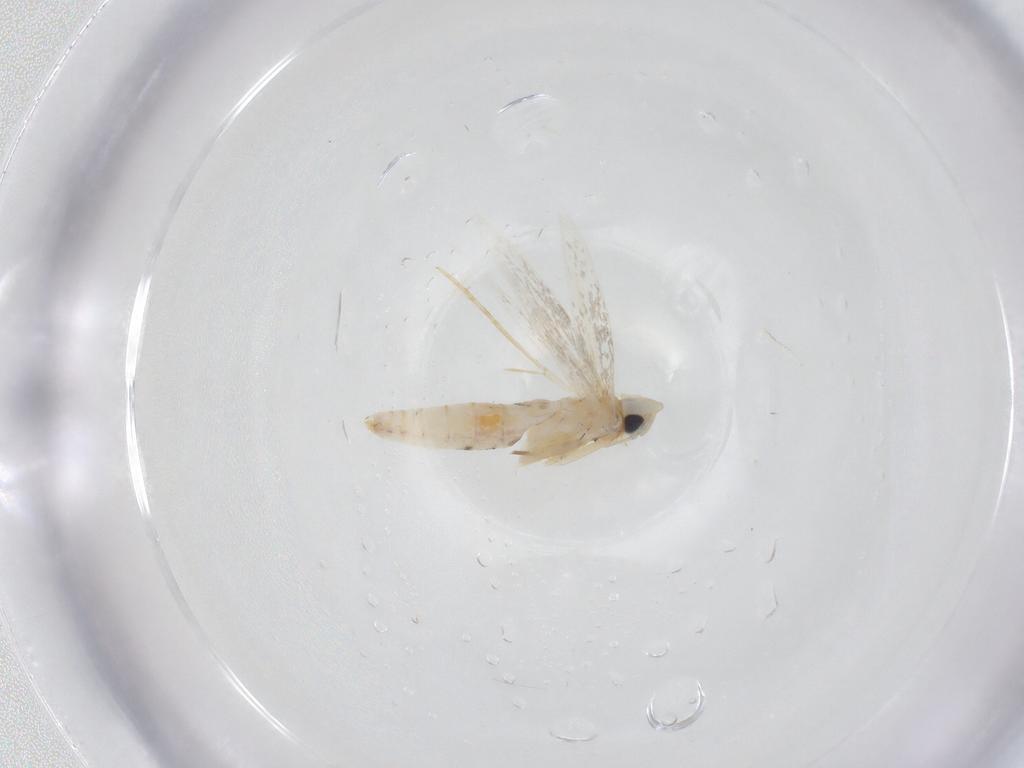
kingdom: Animalia
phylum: Arthropoda
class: Insecta
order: Lepidoptera
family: Tineidae
